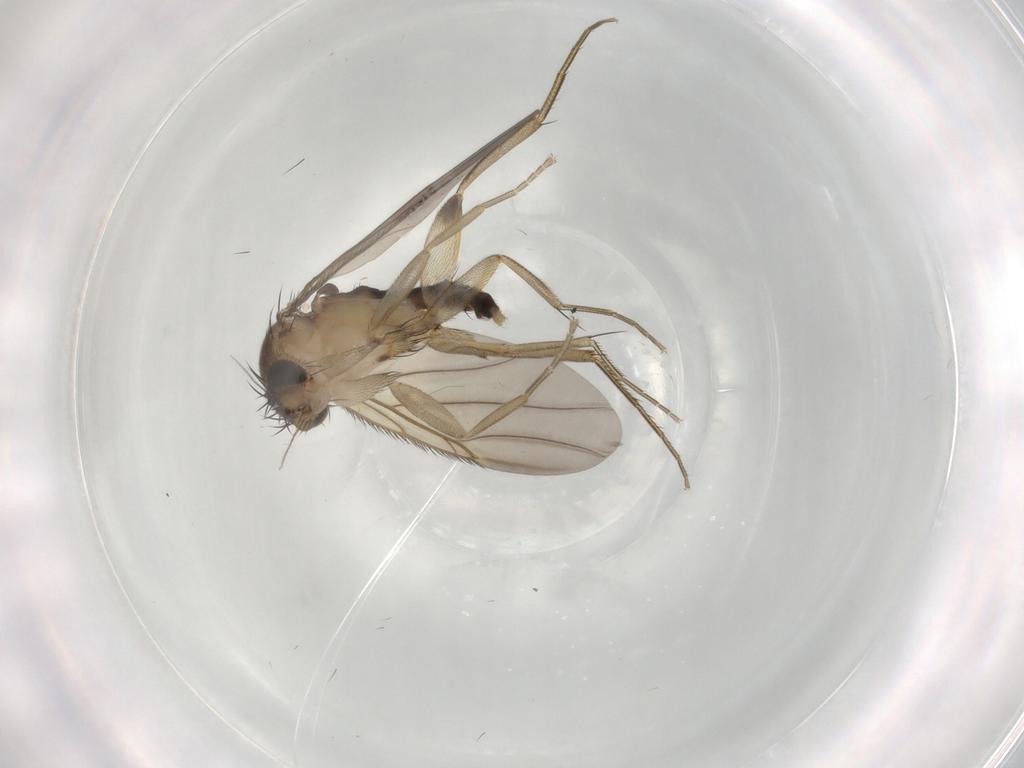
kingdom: Animalia
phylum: Arthropoda
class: Insecta
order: Diptera
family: Phoridae
